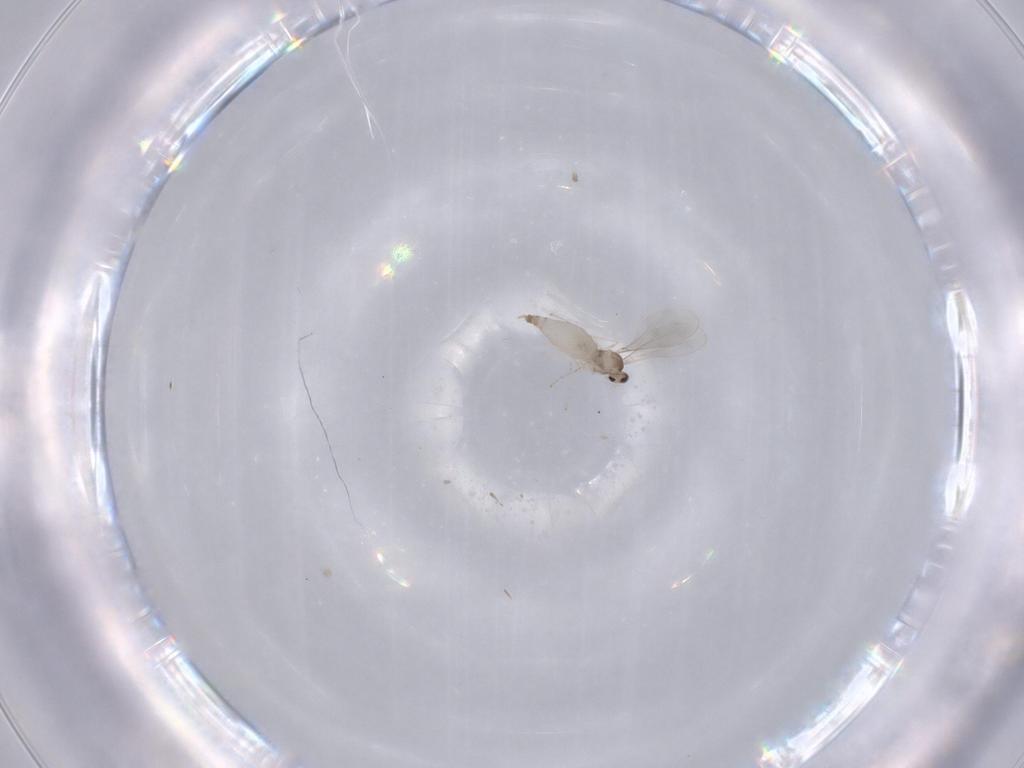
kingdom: Animalia
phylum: Arthropoda
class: Insecta
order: Diptera
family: Cecidomyiidae
